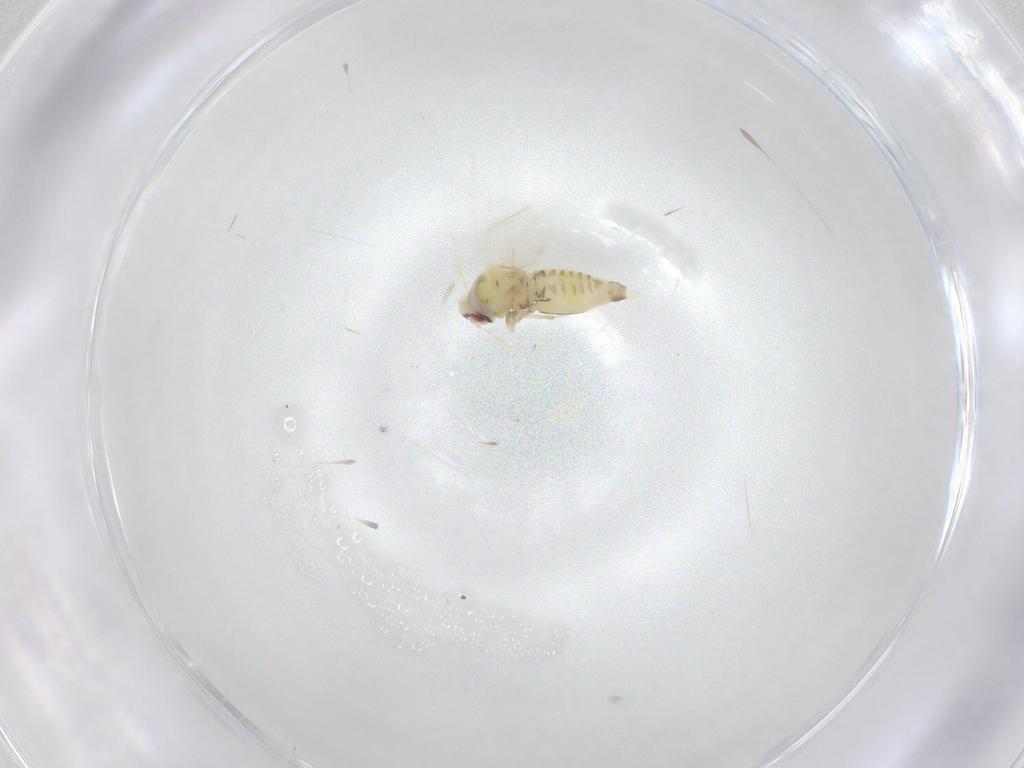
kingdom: Animalia
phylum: Arthropoda
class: Insecta
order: Hemiptera
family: Aleyrodidae
